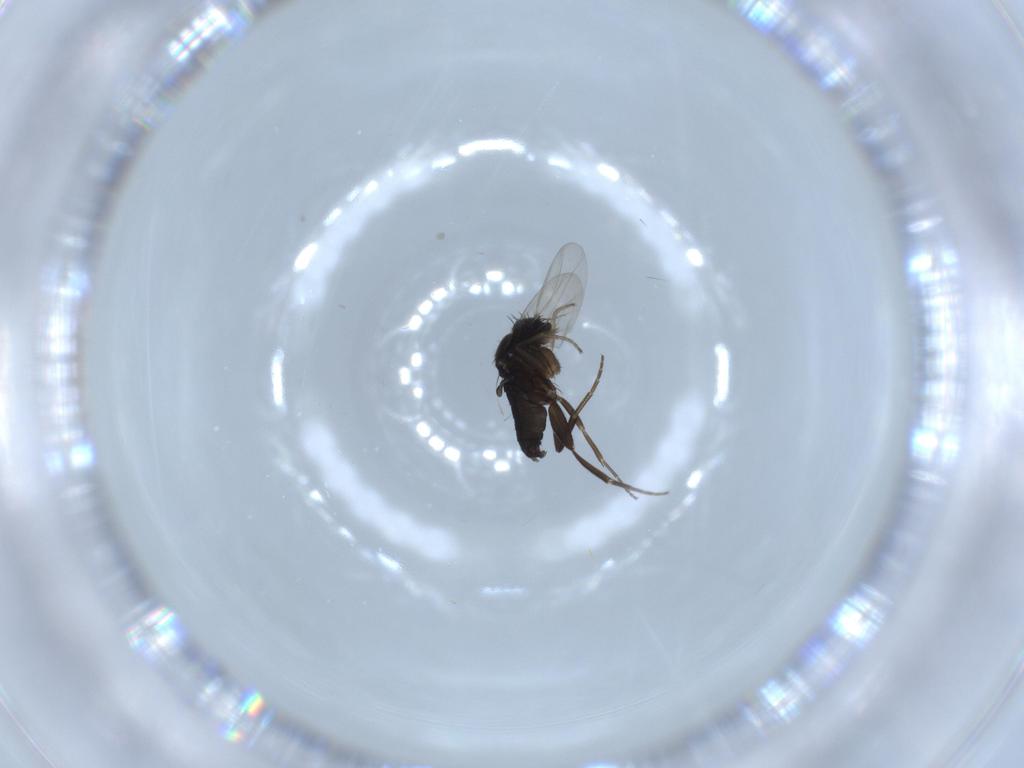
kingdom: Animalia
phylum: Arthropoda
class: Insecta
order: Diptera
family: Phoridae
